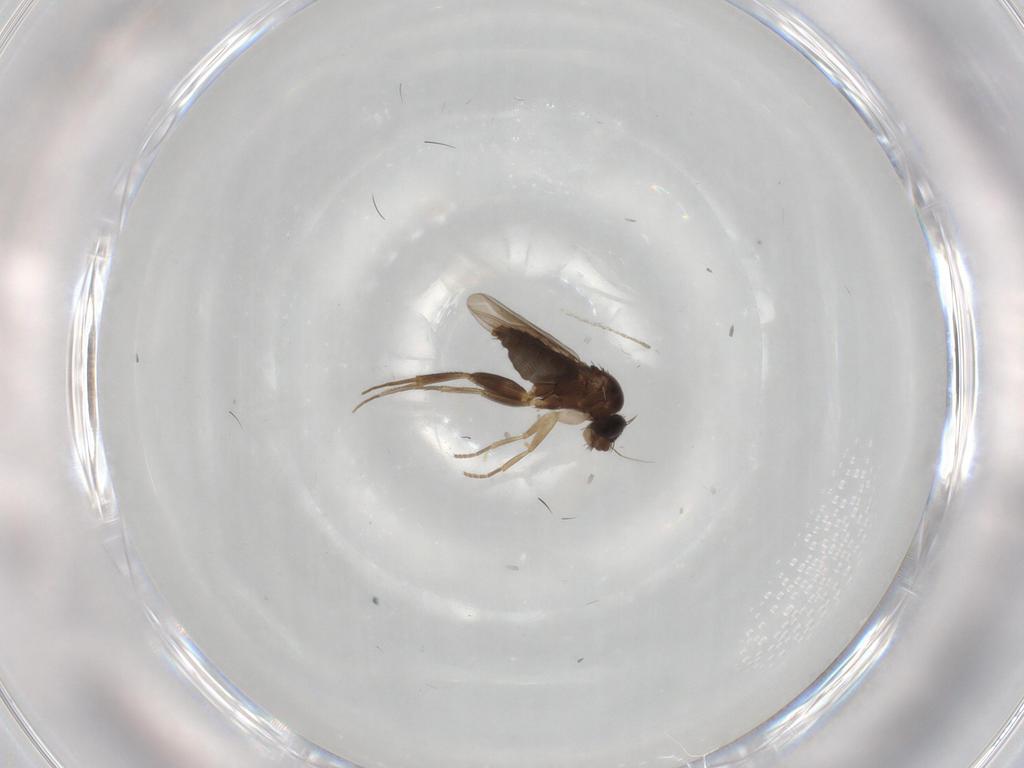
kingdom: Animalia
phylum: Arthropoda
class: Insecta
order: Diptera
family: Phoridae
